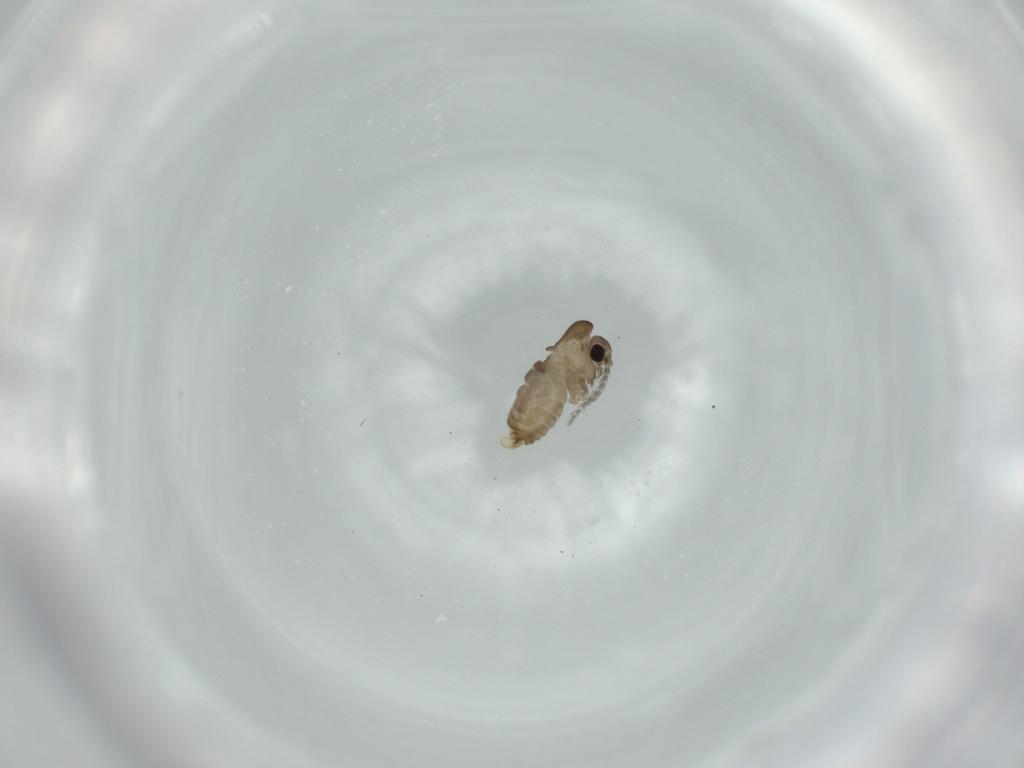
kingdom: Animalia
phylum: Arthropoda
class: Insecta
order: Diptera
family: Psychodidae
